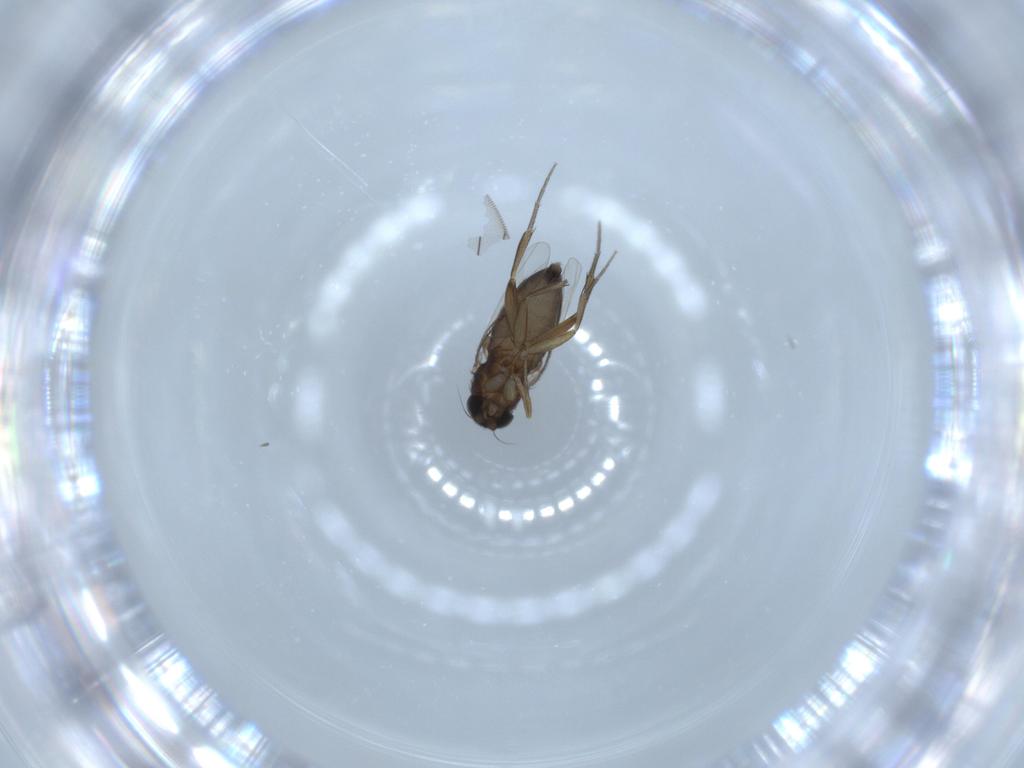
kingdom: Animalia
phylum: Arthropoda
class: Insecta
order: Diptera
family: Phoridae
